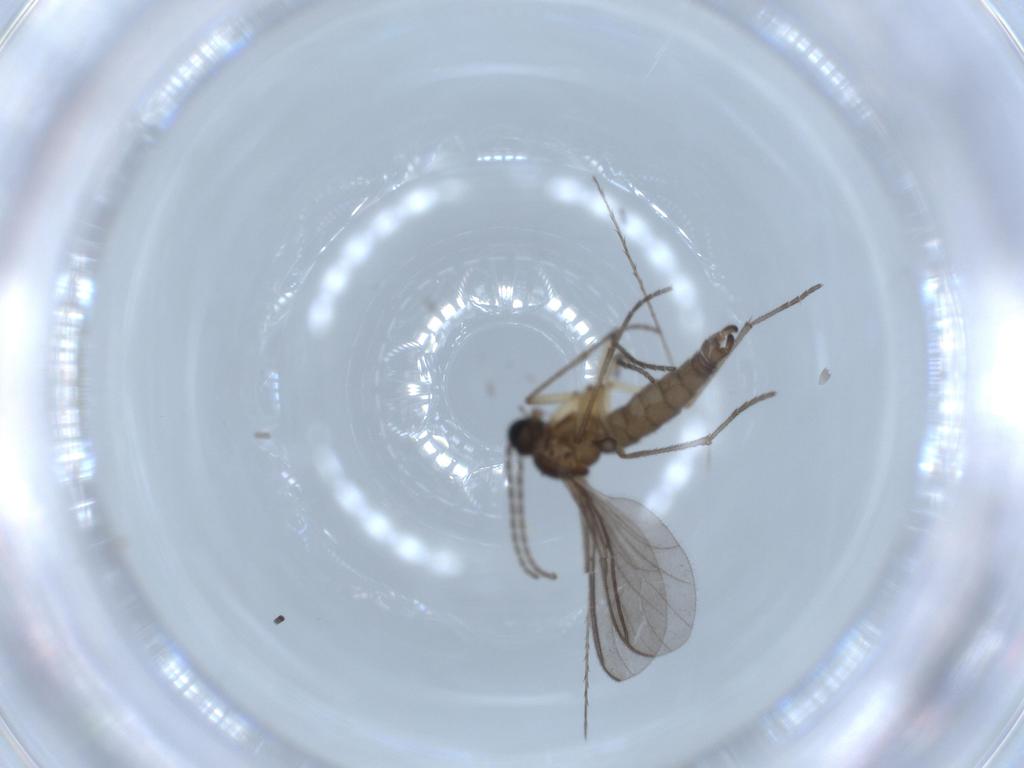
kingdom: Animalia
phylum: Arthropoda
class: Insecta
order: Diptera
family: Sciaridae
